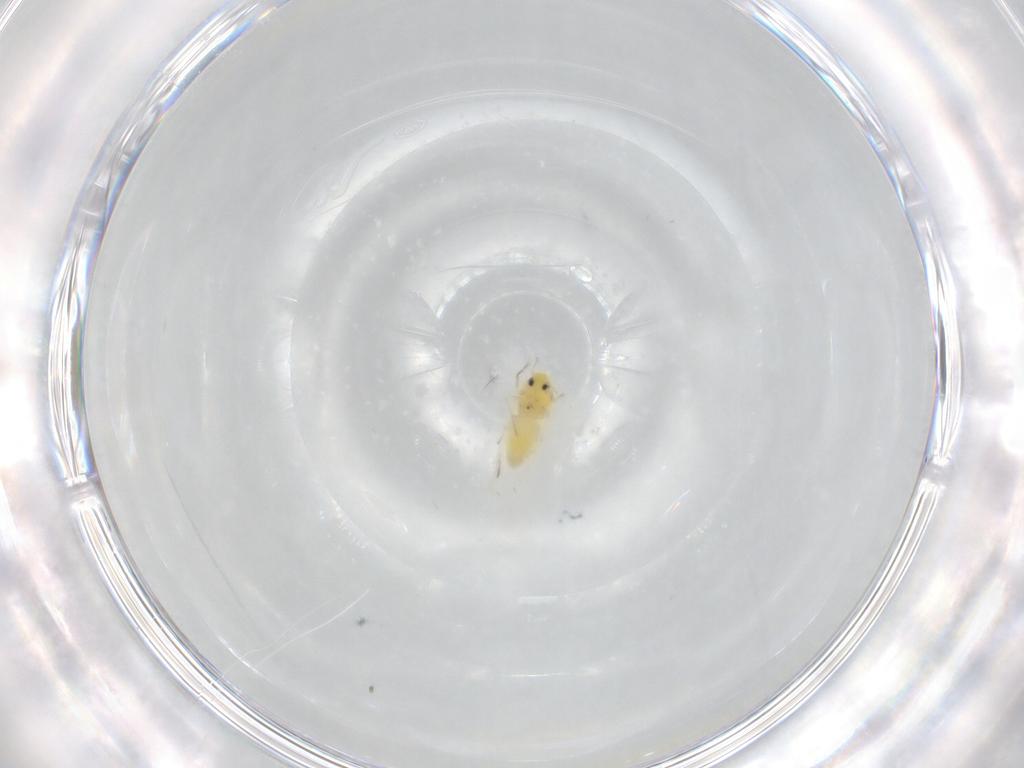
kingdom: Animalia
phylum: Arthropoda
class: Insecta
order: Hemiptera
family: Aleyrodidae
